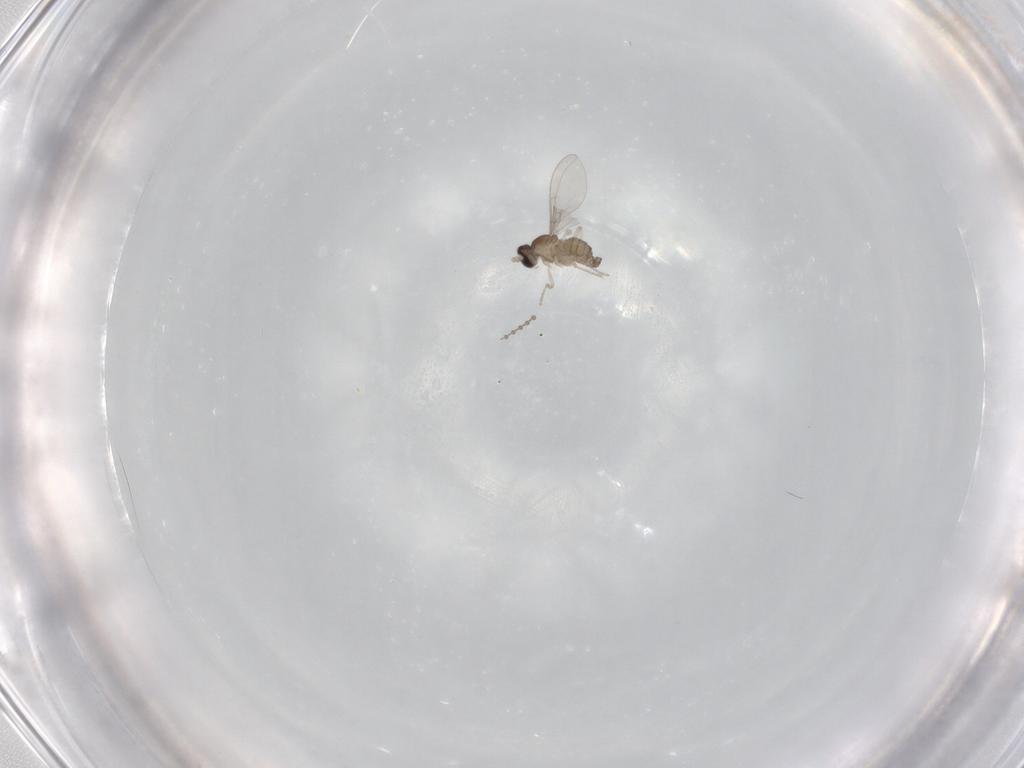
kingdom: Animalia
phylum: Arthropoda
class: Insecta
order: Diptera
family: Cecidomyiidae
